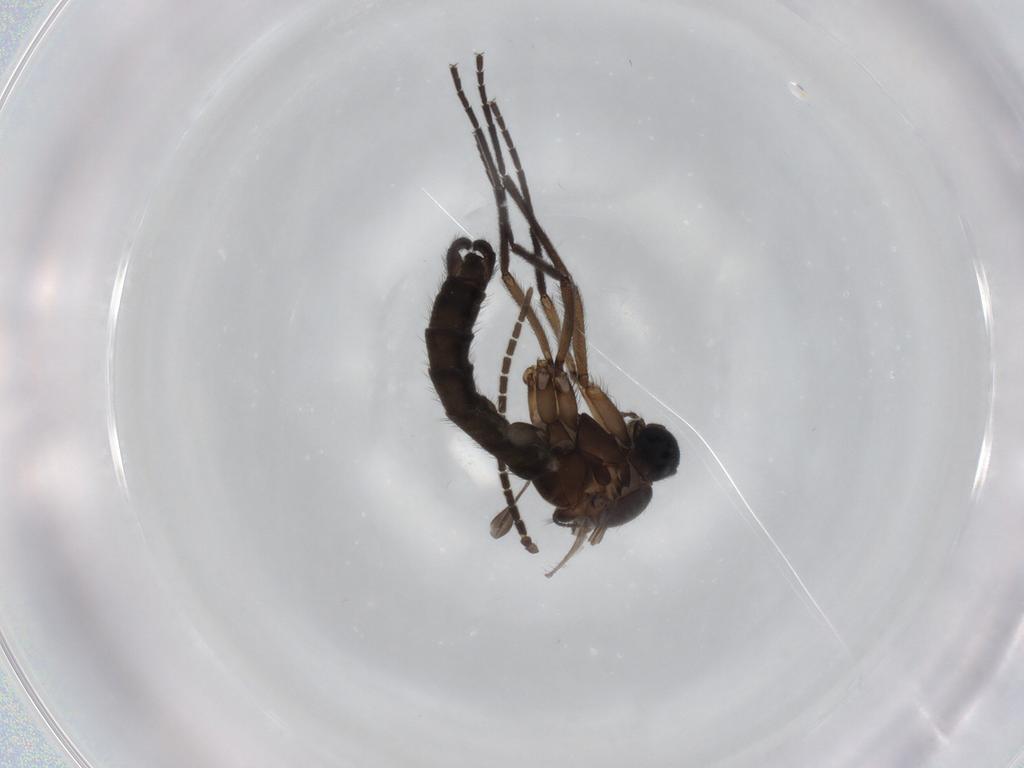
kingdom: Animalia
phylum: Arthropoda
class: Insecta
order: Diptera
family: Sciaridae
